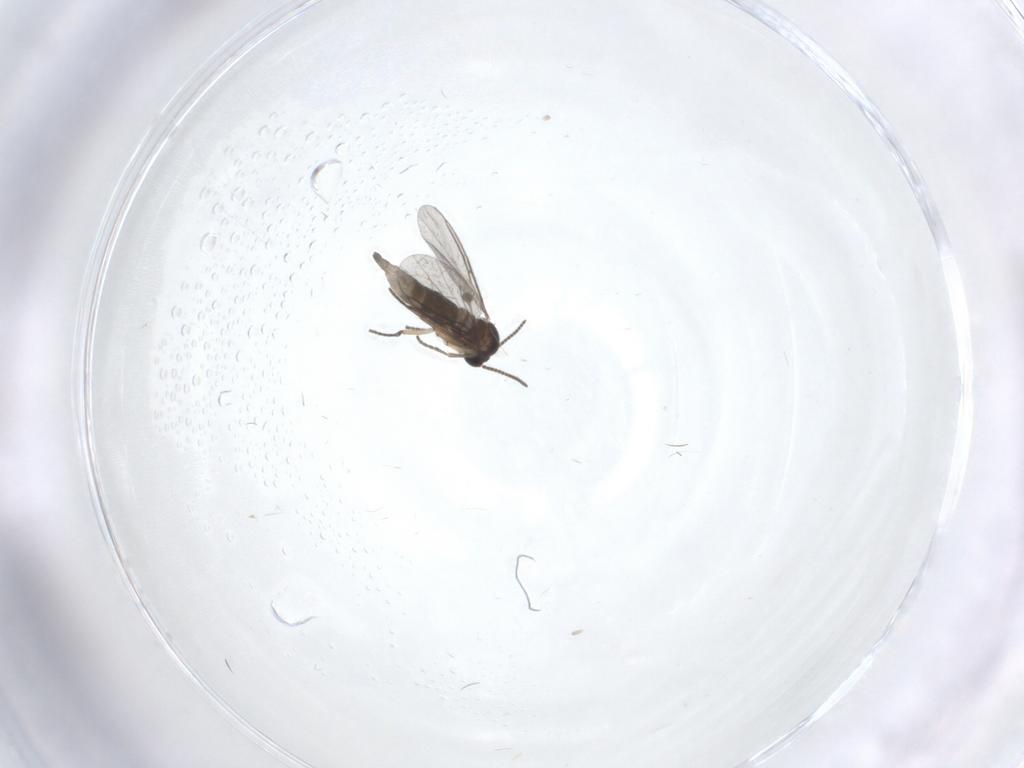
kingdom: Animalia
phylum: Arthropoda
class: Insecta
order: Diptera
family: Sciaridae
